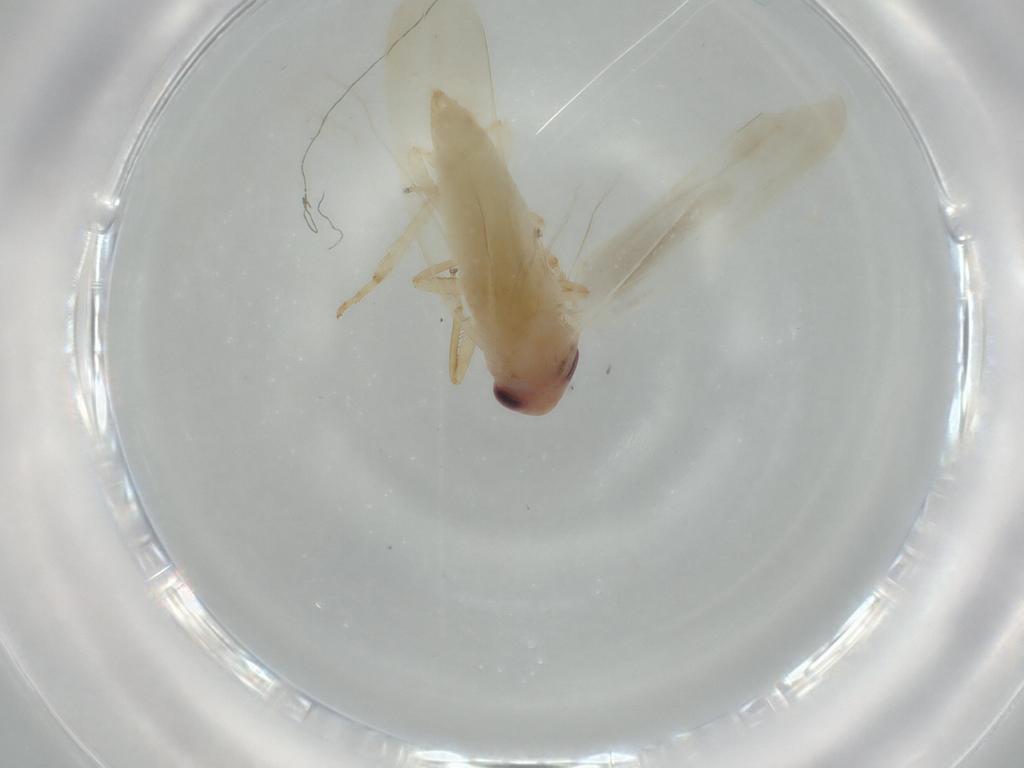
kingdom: Animalia
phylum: Arthropoda
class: Insecta
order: Hemiptera
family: Cicadellidae
